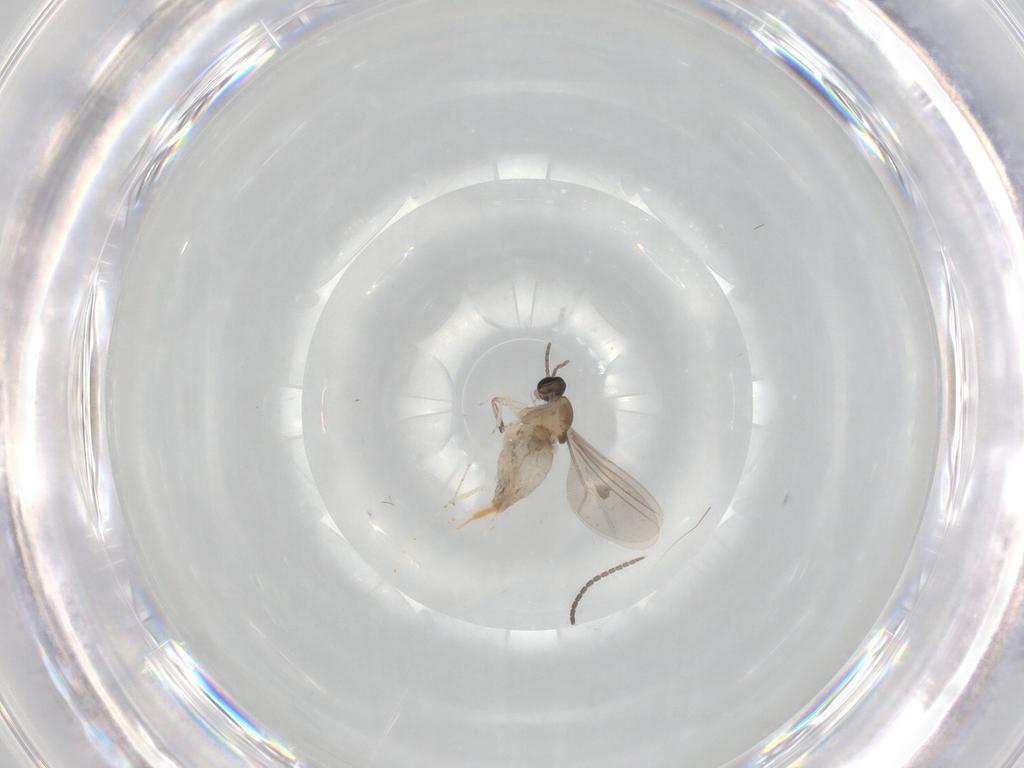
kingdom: Animalia
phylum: Arthropoda
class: Insecta
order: Diptera
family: Sciaridae
